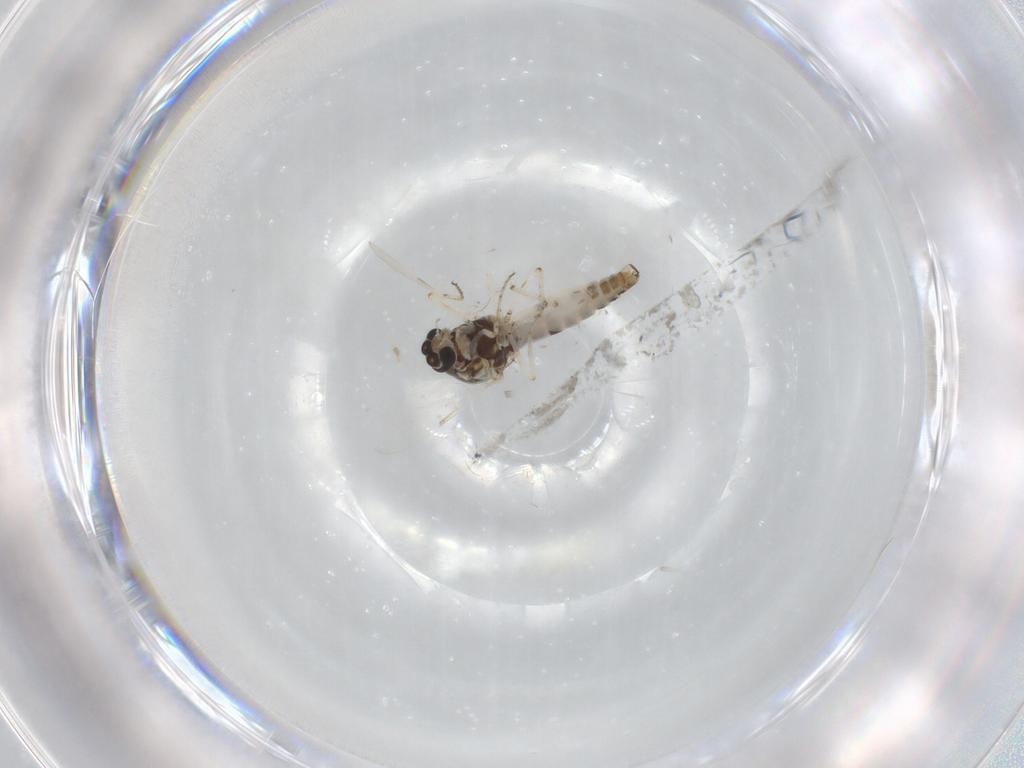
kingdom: Animalia
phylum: Arthropoda
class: Insecta
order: Diptera
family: Ceratopogonidae
